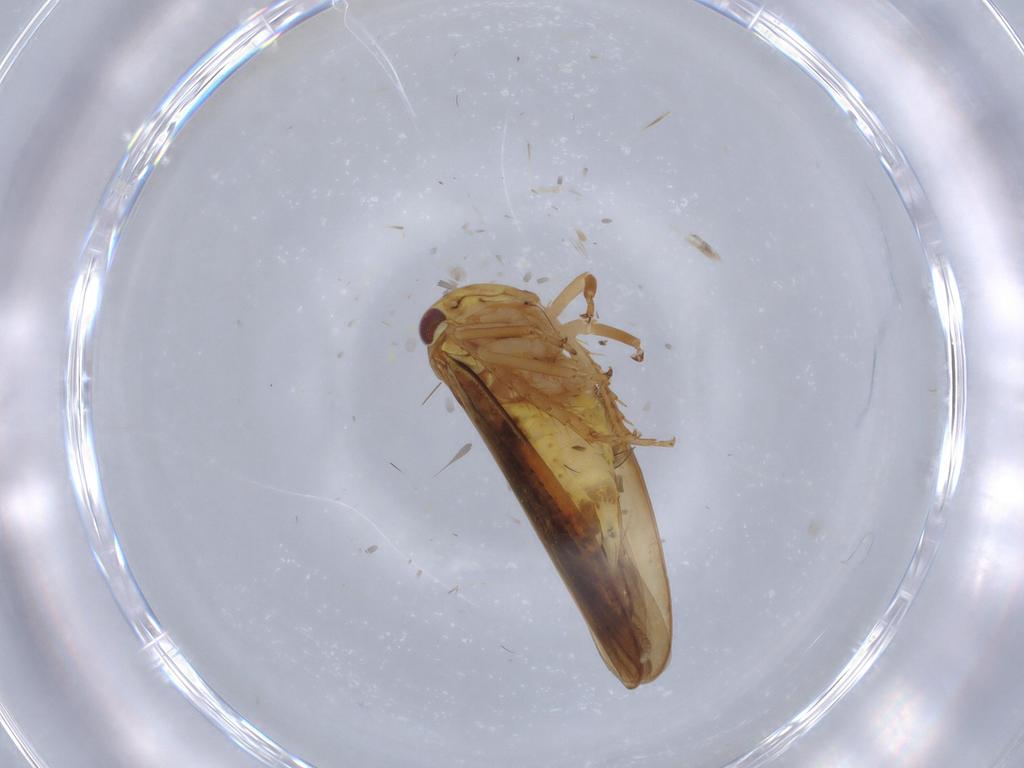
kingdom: Animalia
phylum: Arthropoda
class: Insecta
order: Hemiptera
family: Cicadellidae
